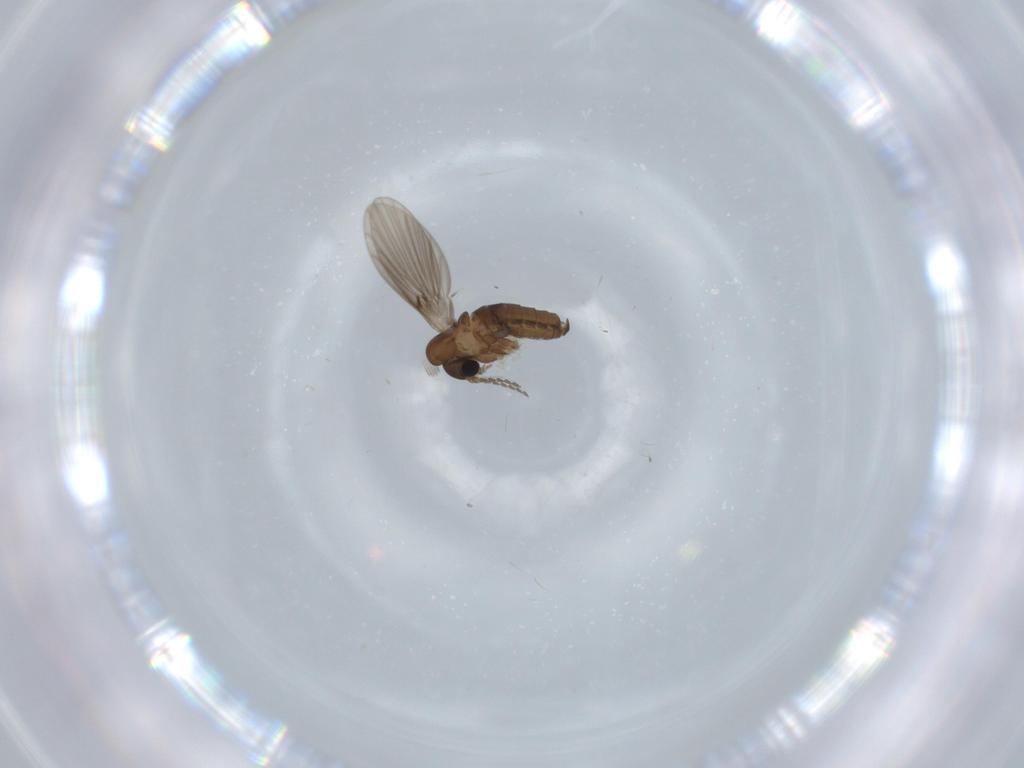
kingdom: Animalia
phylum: Arthropoda
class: Insecta
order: Diptera
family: Psychodidae
